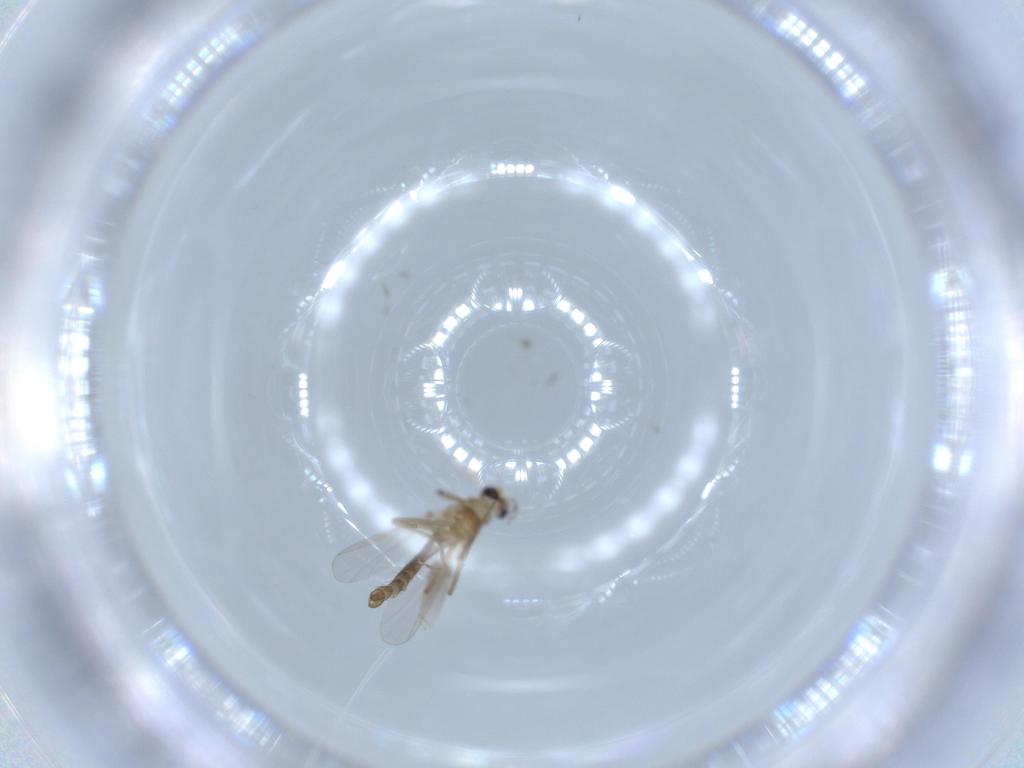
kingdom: Animalia
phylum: Arthropoda
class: Insecta
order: Diptera
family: Chironomidae
